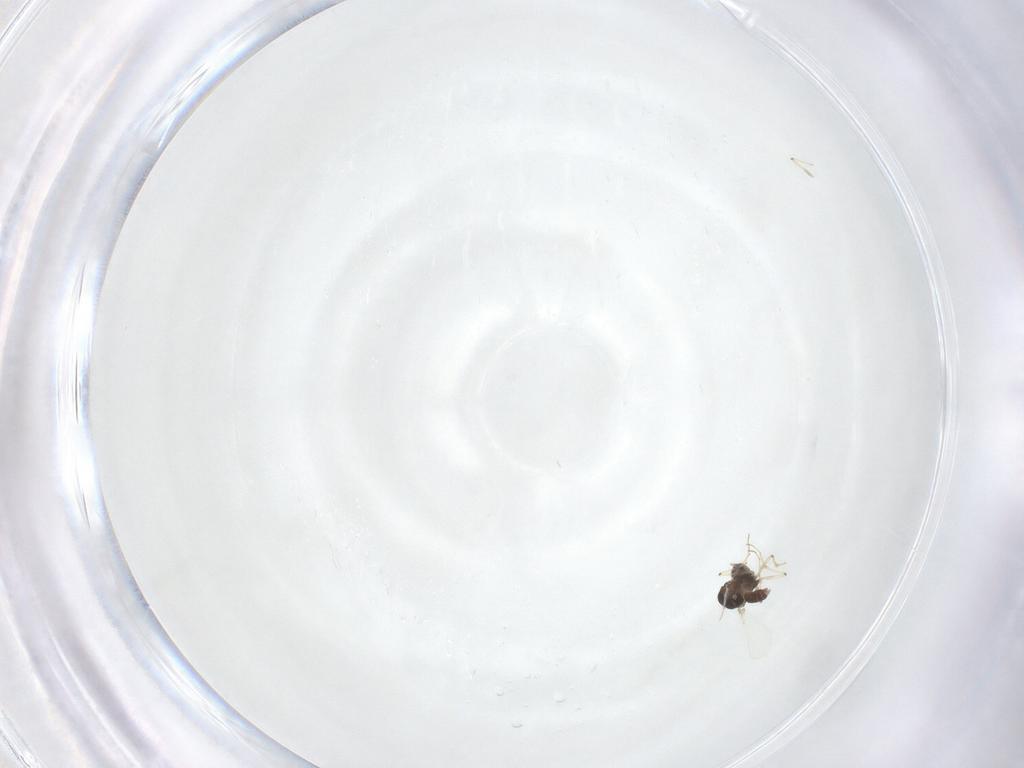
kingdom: Animalia
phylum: Arthropoda
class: Insecta
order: Diptera
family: Chironomidae
